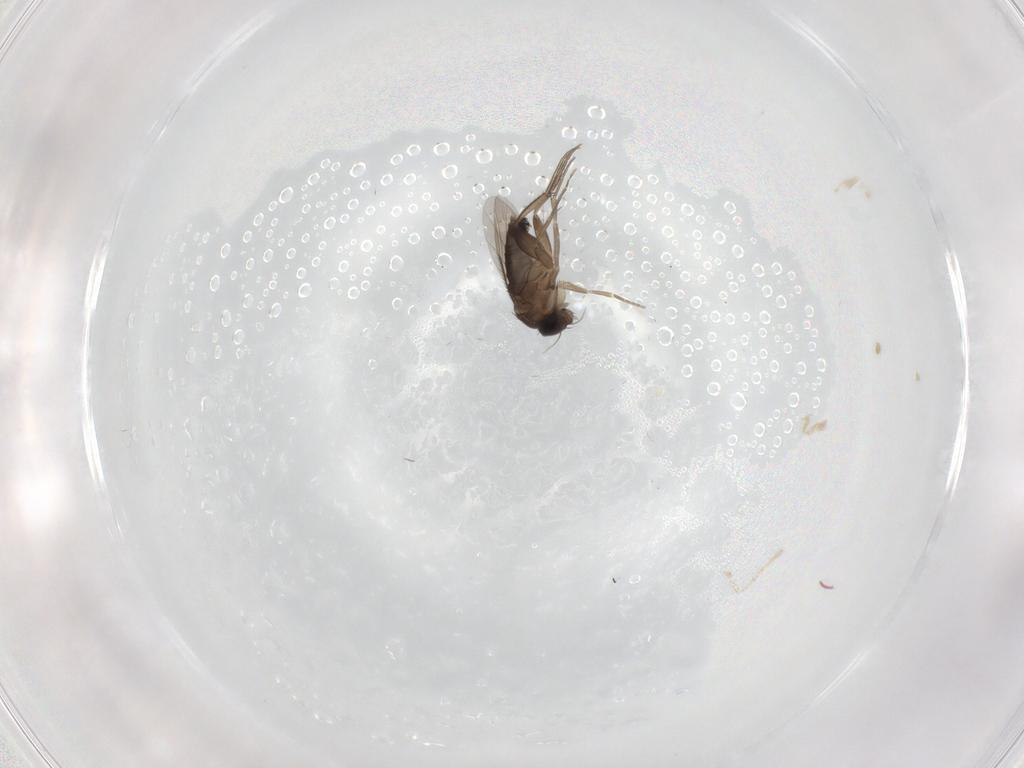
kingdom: Animalia
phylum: Arthropoda
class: Insecta
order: Diptera
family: Phoridae
